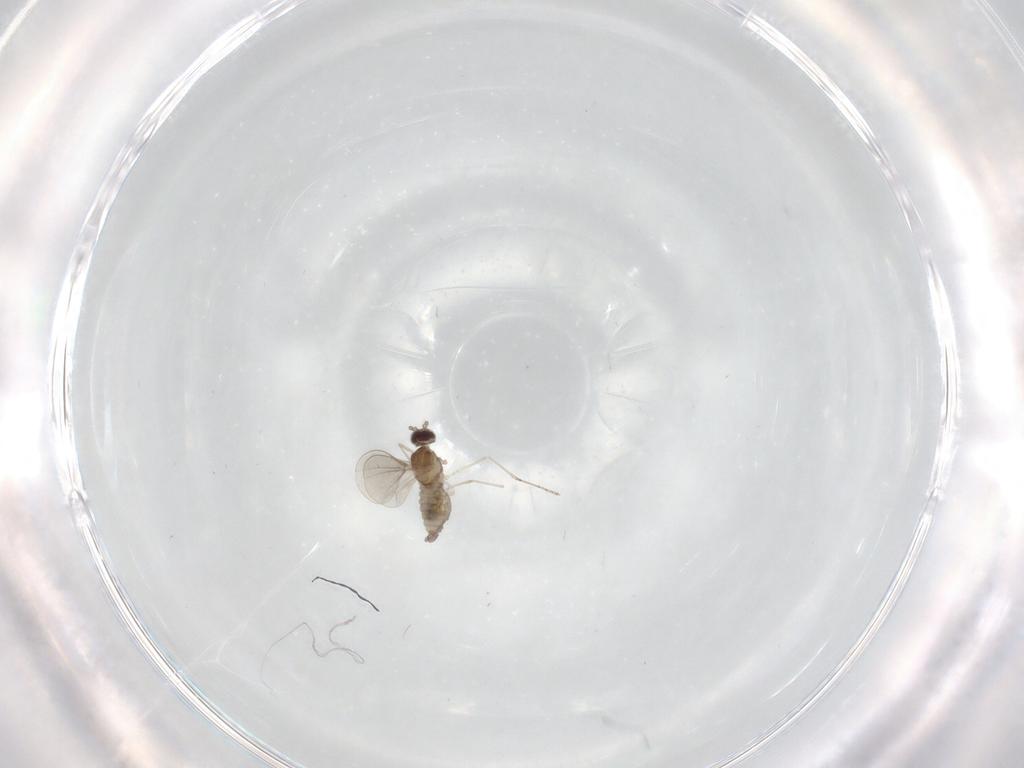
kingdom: Animalia
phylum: Arthropoda
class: Insecta
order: Diptera
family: Cecidomyiidae
